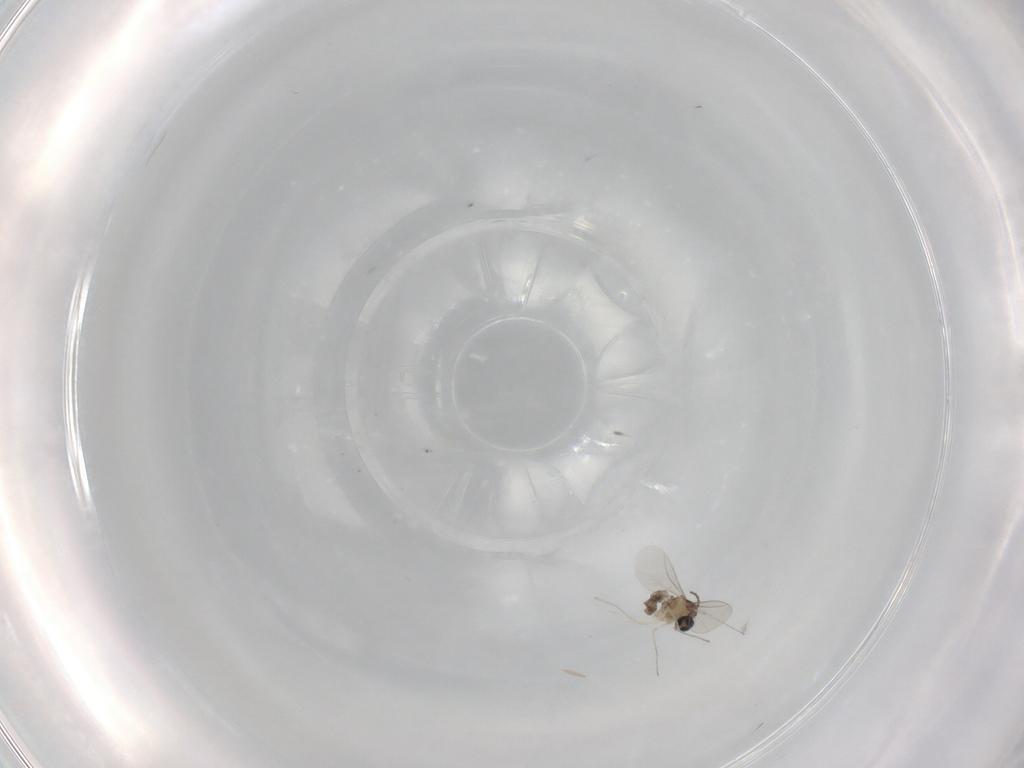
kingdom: Animalia
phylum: Arthropoda
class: Insecta
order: Diptera
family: Cecidomyiidae
